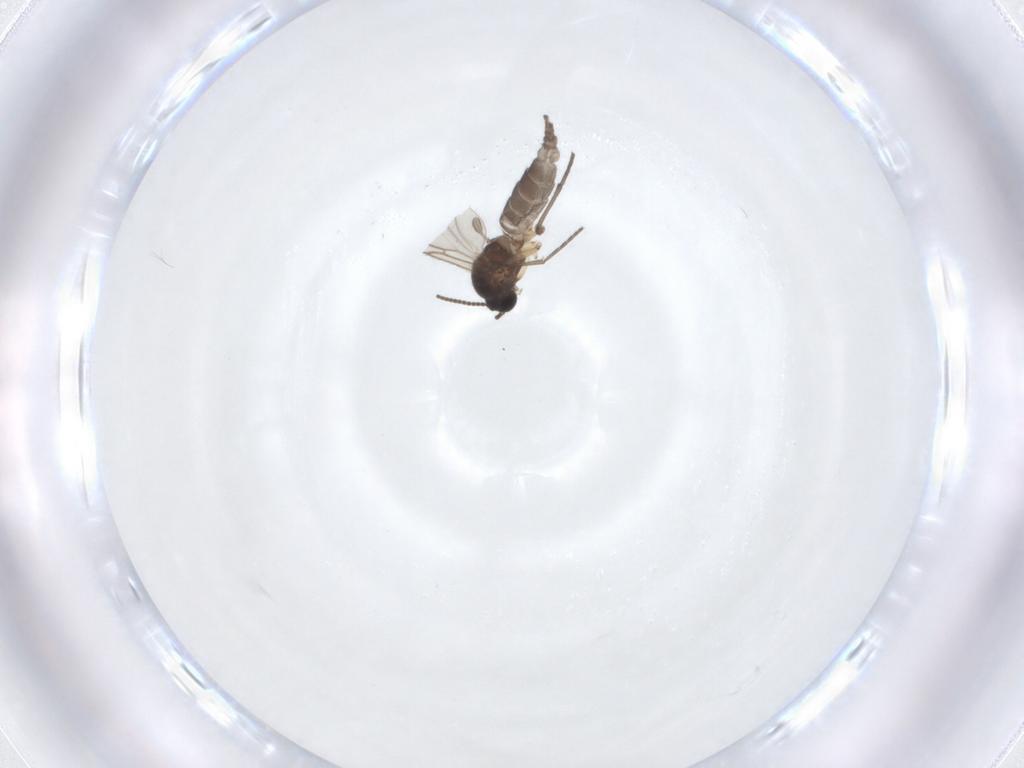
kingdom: Animalia
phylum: Arthropoda
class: Insecta
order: Diptera
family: Sciaridae
